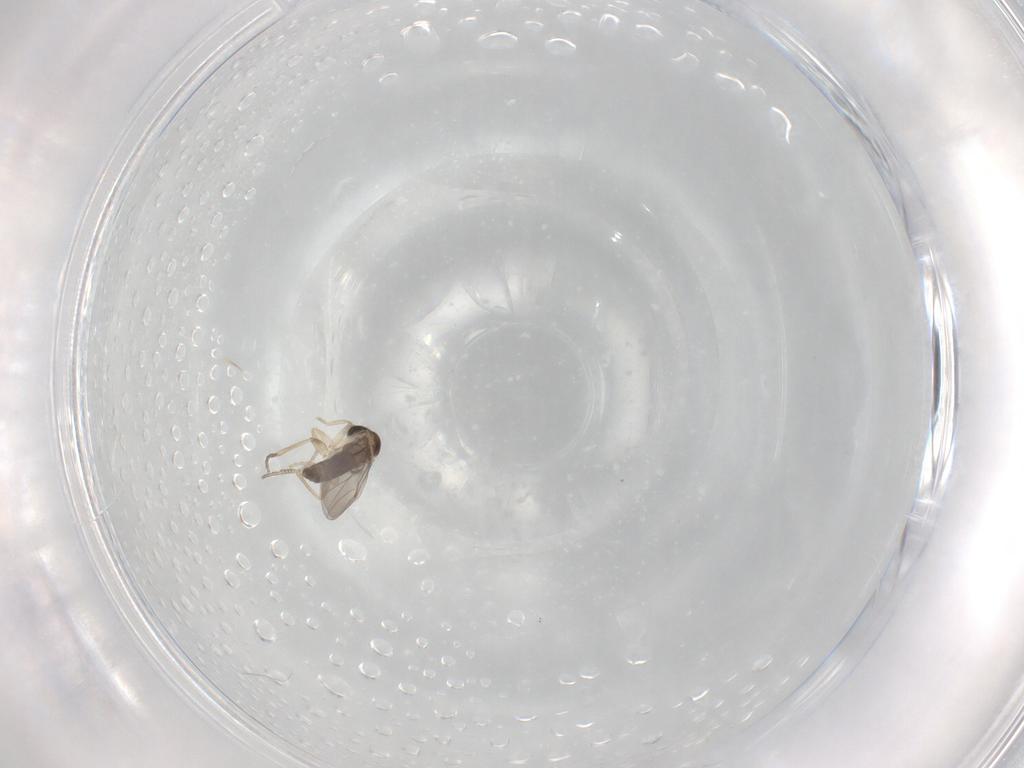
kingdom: Animalia
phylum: Arthropoda
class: Insecta
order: Diptera
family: Phoridae
